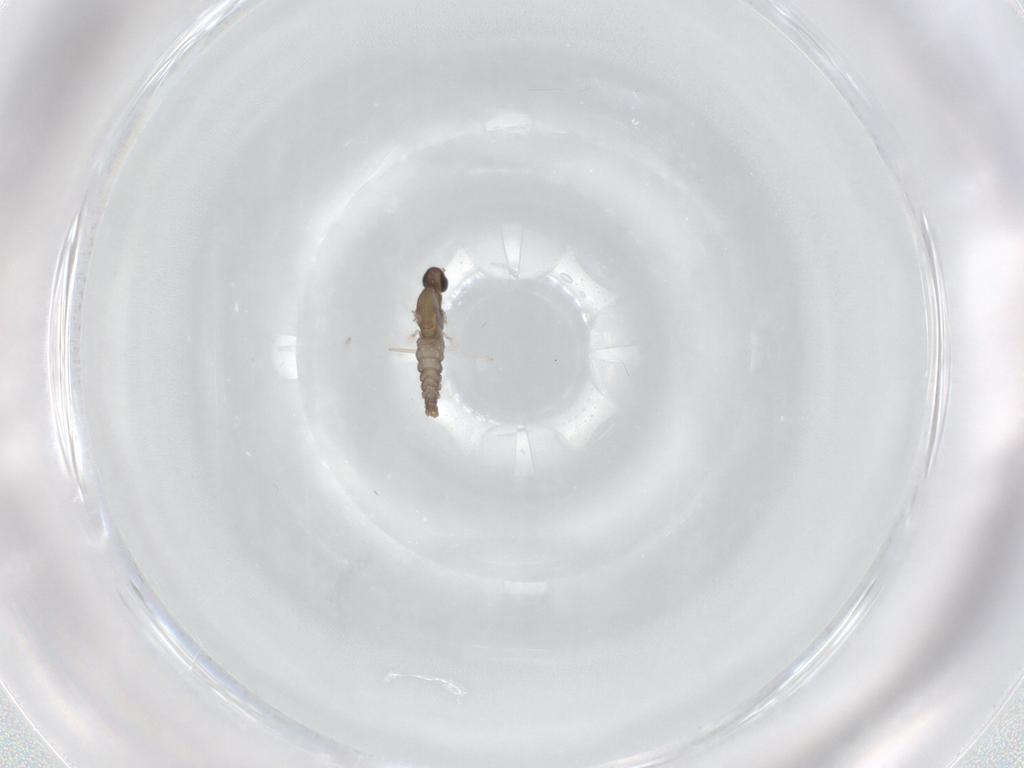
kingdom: Animalia
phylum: Arthropoda
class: Insecta
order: Diptera
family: Cecidomyiidae
